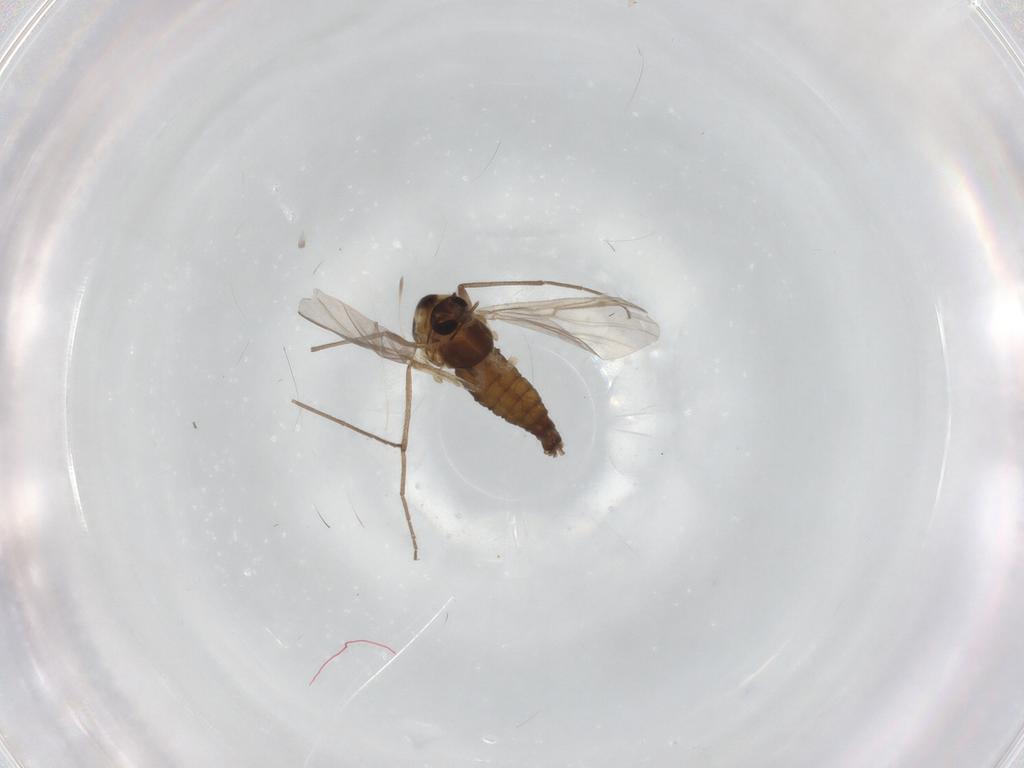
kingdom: Animalia
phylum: Arthropoda
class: Insecta
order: Diptera
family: Chironomidae
